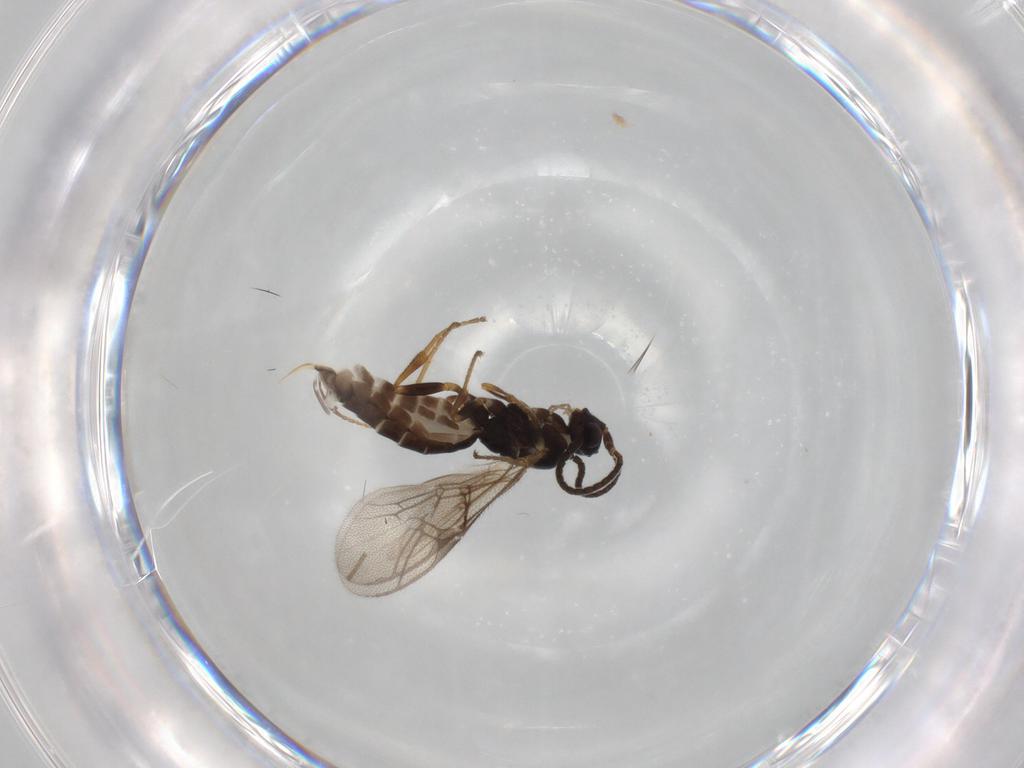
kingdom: Animalia
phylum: Arthropoda
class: Insecta
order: Hymenoptera
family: Ichneumonidae
